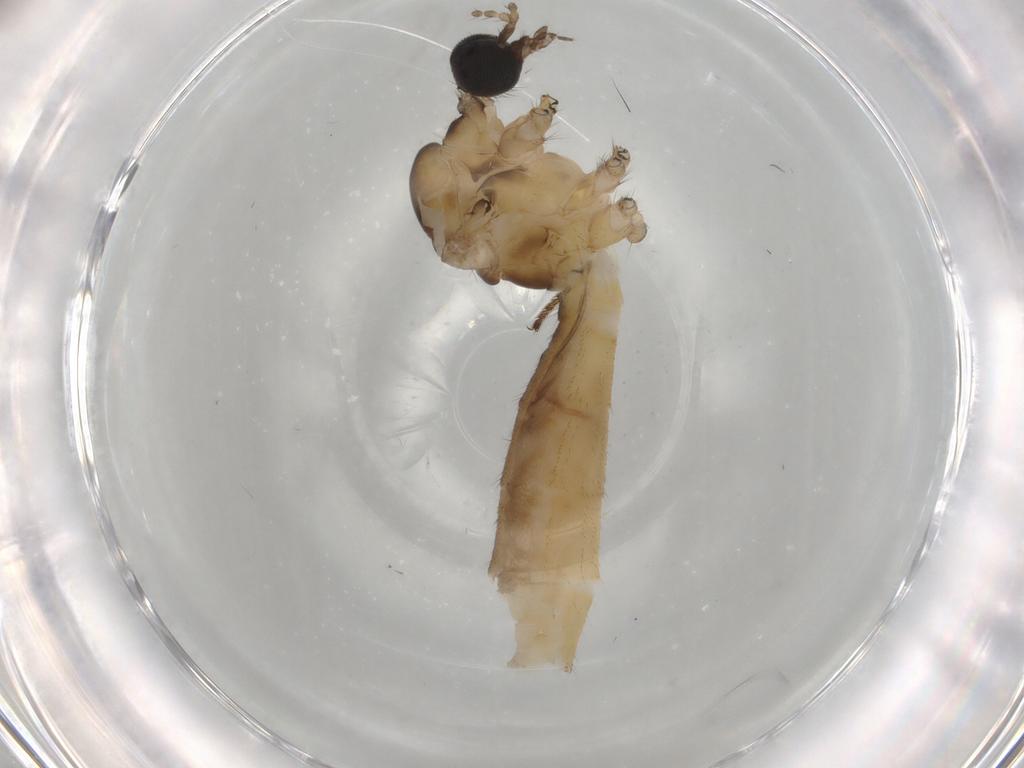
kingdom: Animalia
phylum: Arthropoda
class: Insecta
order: Diptera
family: Limoniidae
